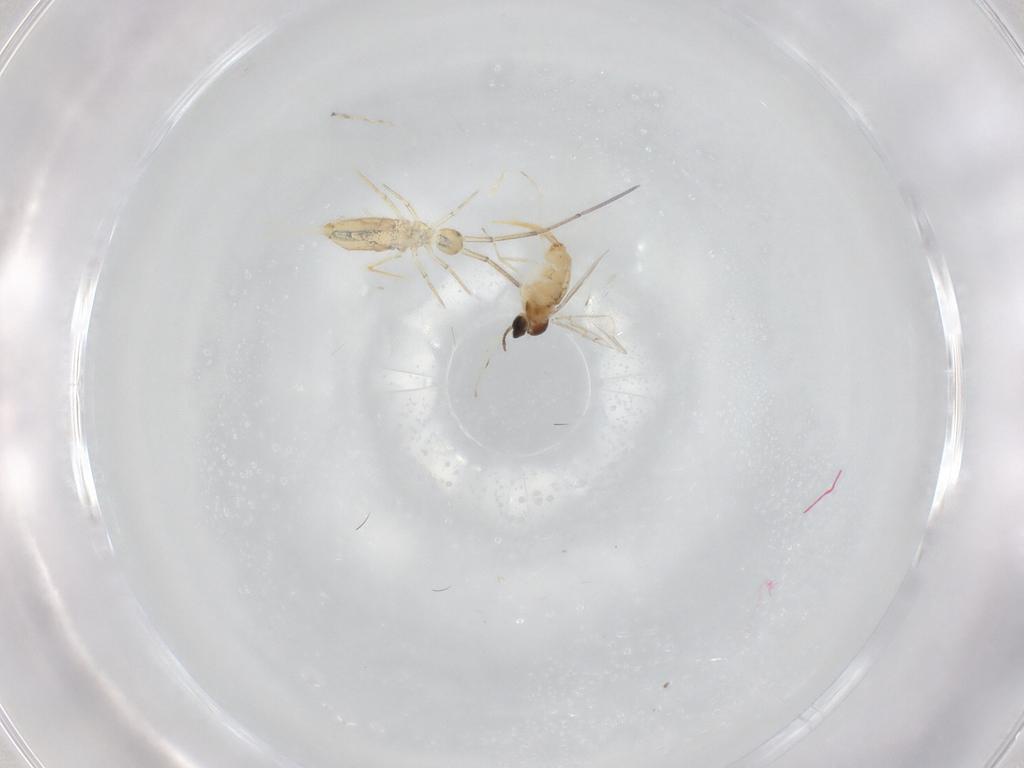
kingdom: Animalia
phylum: Arthropoda
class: Insecta
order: Diptera
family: Cecidomyiidae
